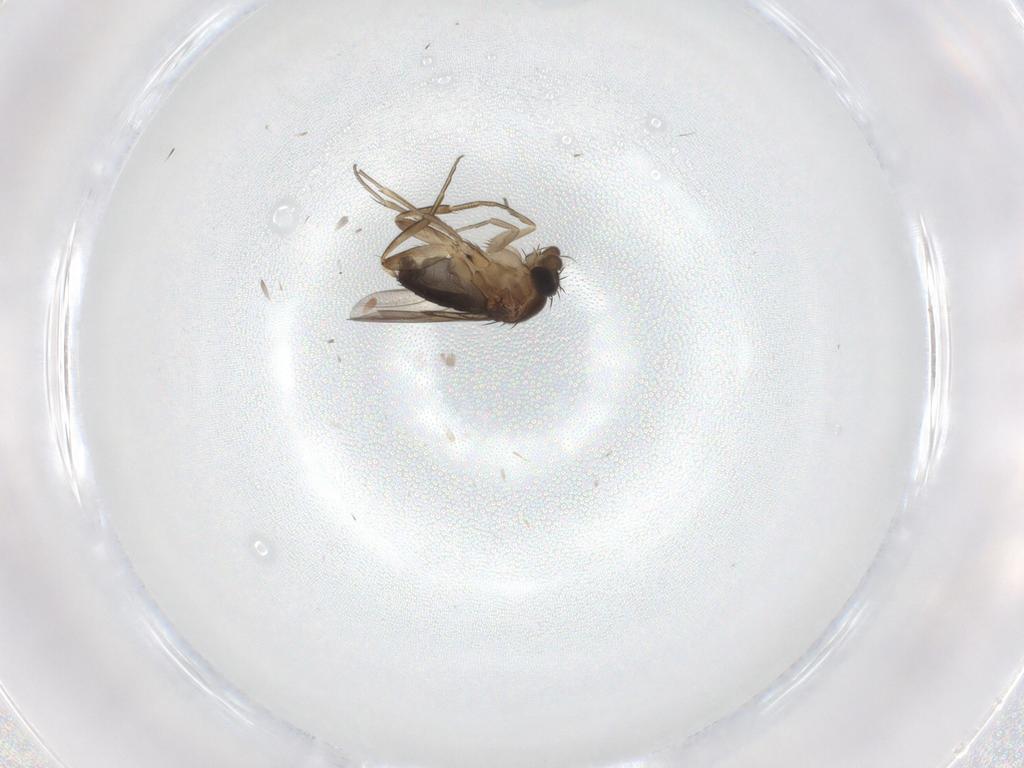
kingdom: Animalia
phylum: Arthropoda
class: Insecta
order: Diptera
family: Phoridae
